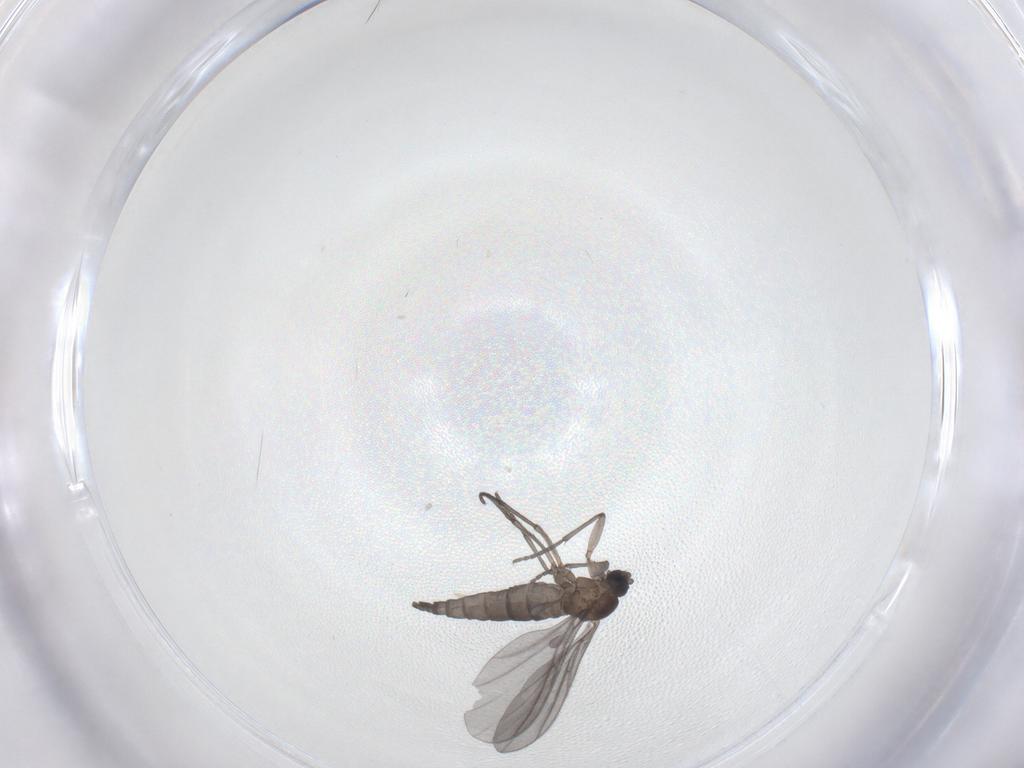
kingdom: Animalia
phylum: Arthropoda
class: Insecta
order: Diptera
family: Sciaridae
